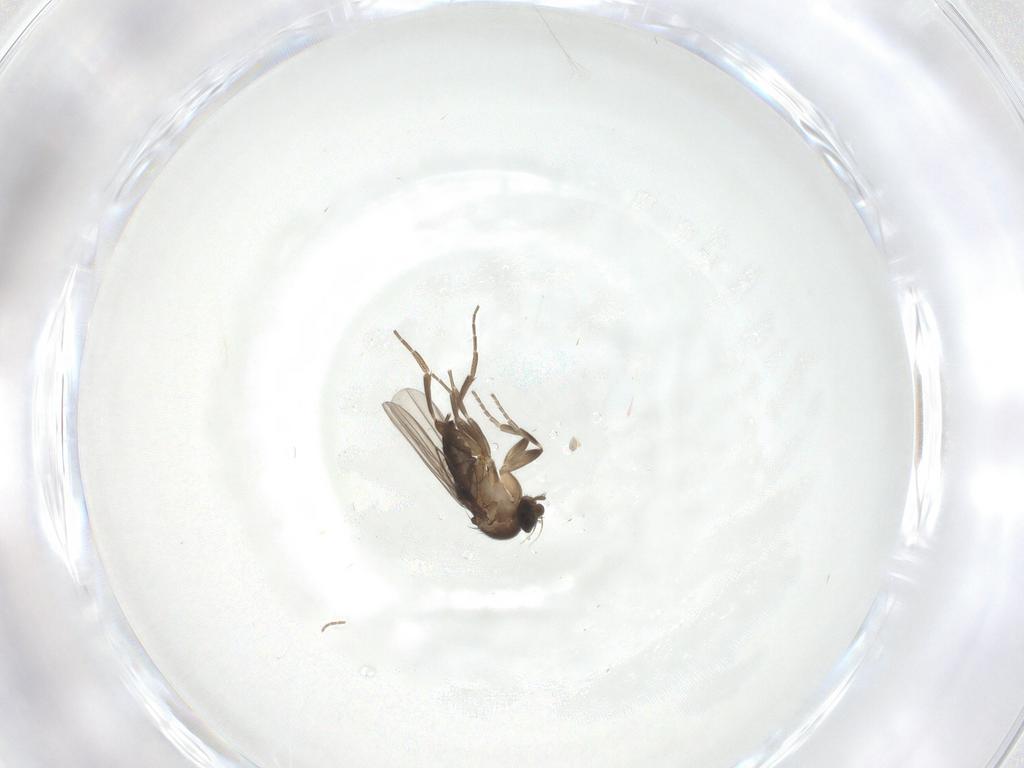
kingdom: Animalia
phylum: Arthropoda
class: Insecta
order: Diptera
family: Phoridae
